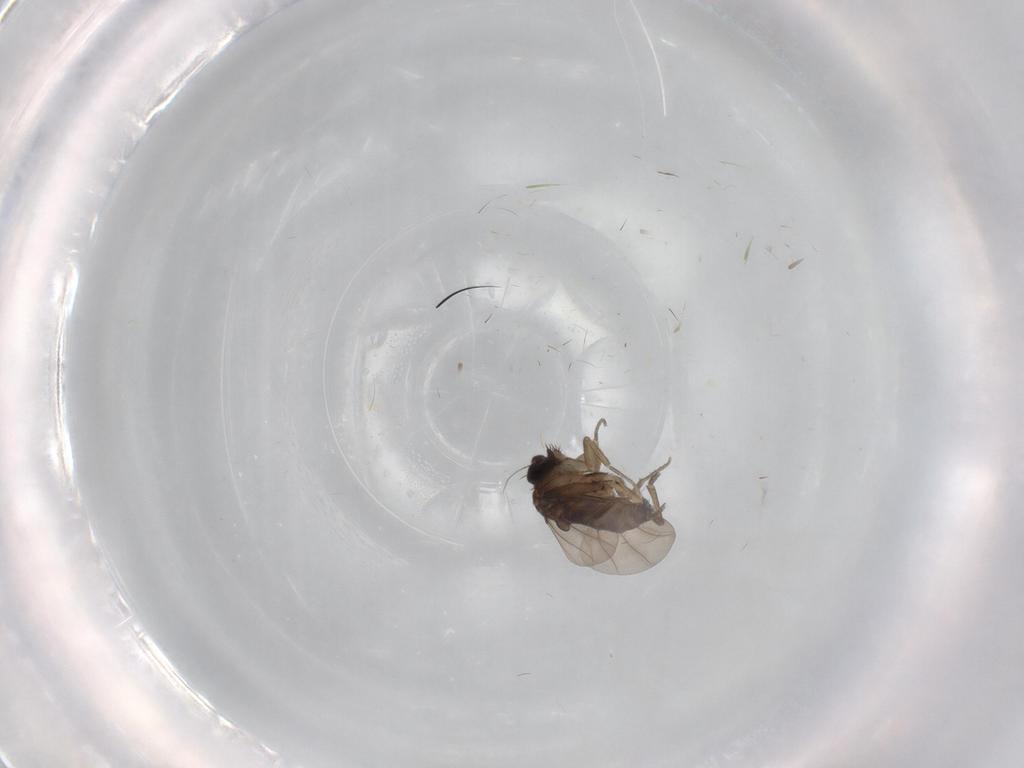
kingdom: Animalia
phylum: Arthropoda
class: Insecta
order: Diptera
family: Phoridae
